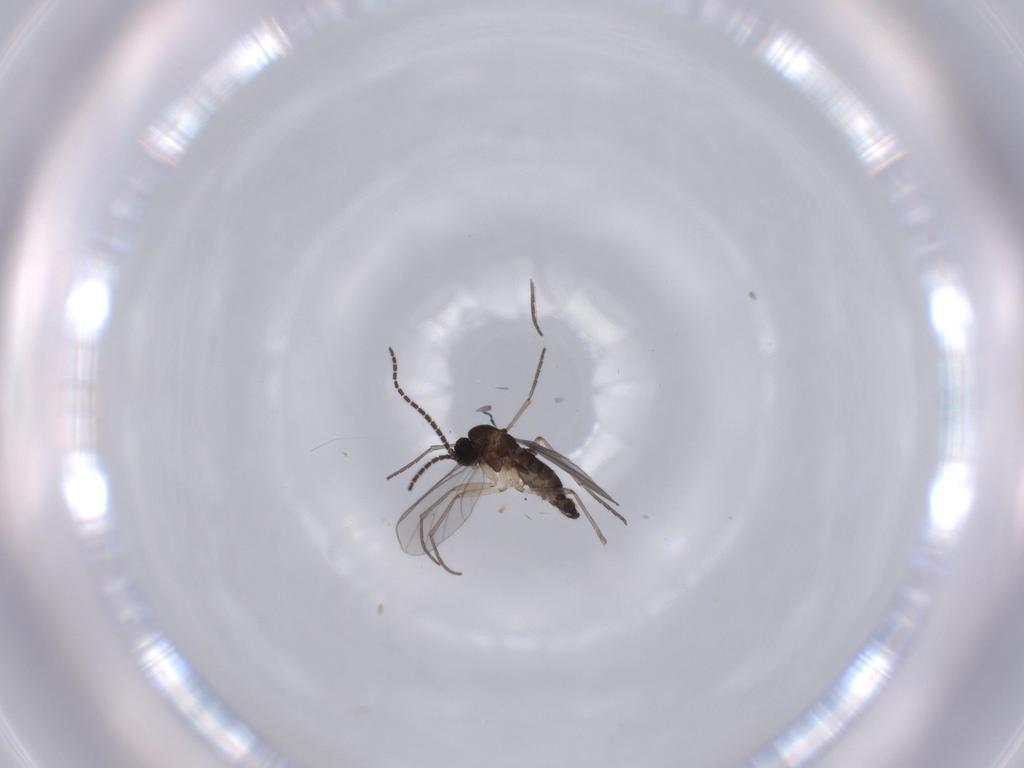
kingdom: Animalia
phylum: Arthropoda
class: Insecta
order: Diptera
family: Sciaridae
